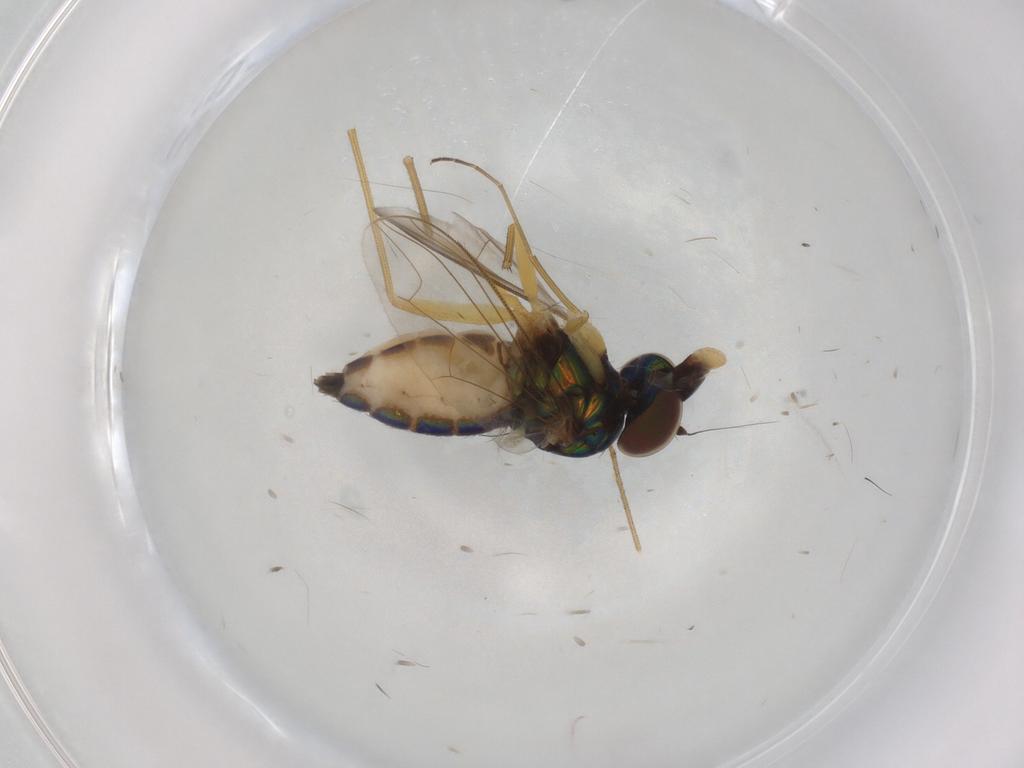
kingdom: Animalia
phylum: Arthropoda
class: Insecta
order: Diptera
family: Dolichopodidae
